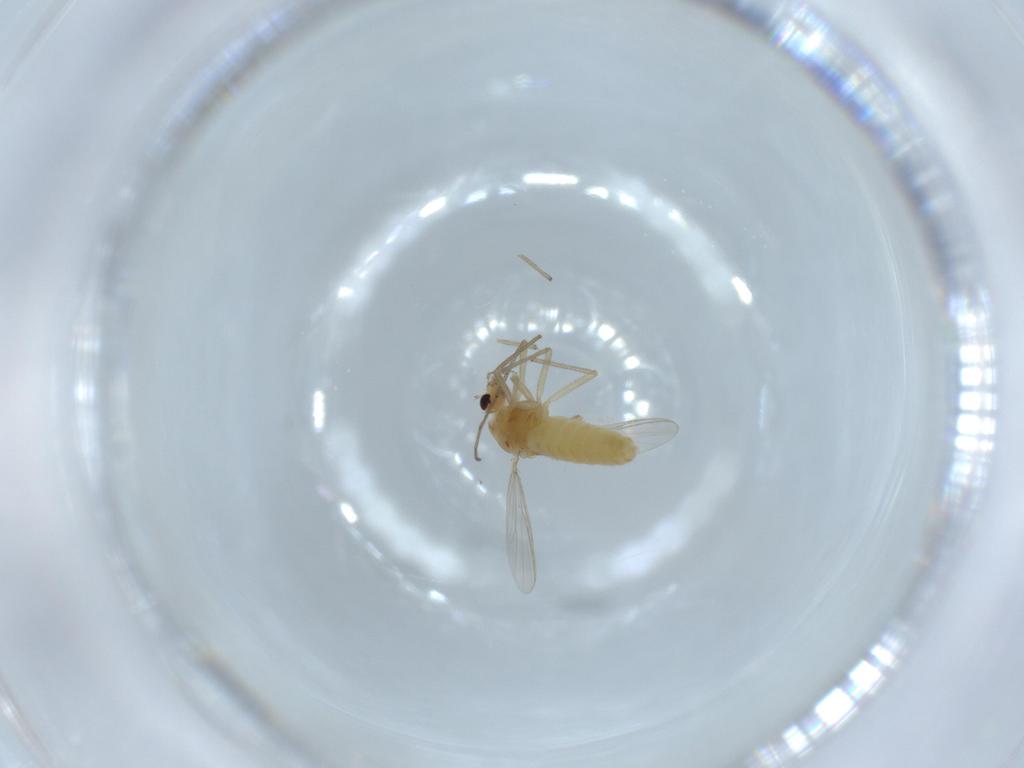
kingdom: Animalia
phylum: Arthropoda
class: Insecta
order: Diptera
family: Chironomidae
